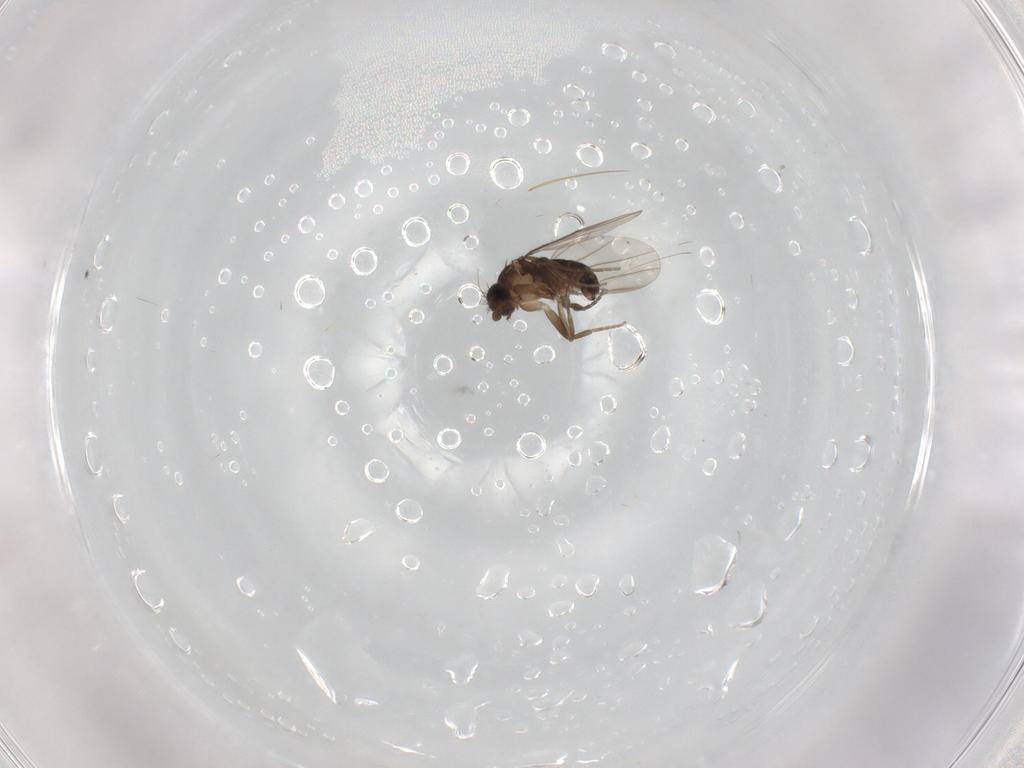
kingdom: Animalia
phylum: Arthropoda
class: Insecta
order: Diptera
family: Phoridae
